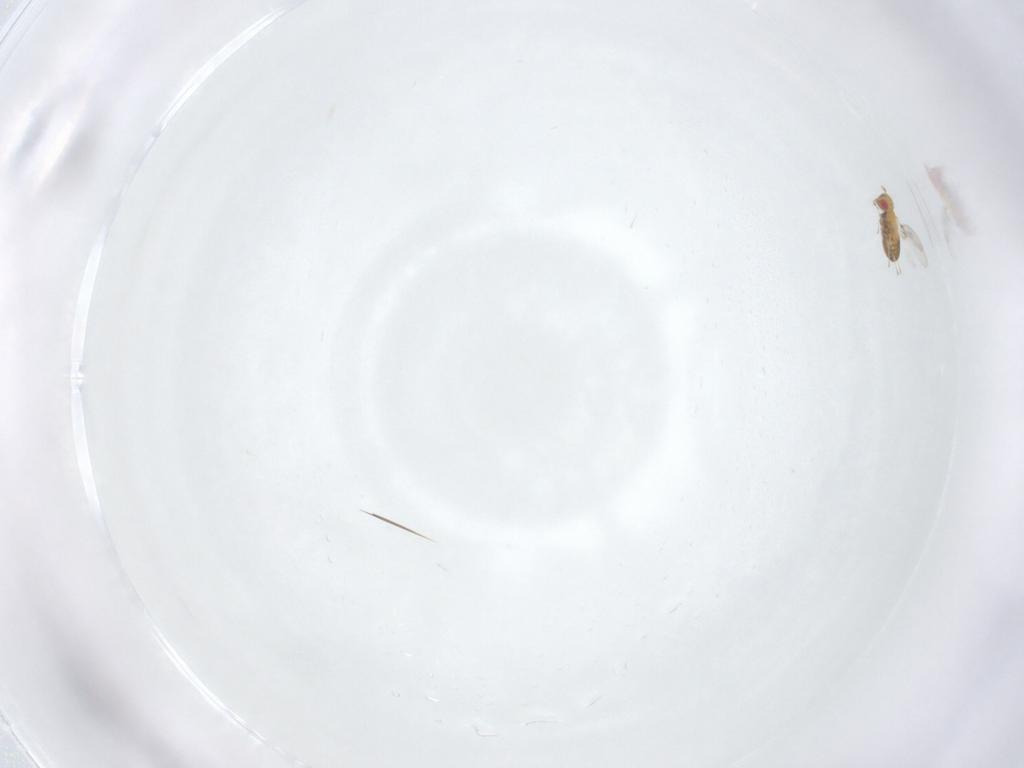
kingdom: Animalia
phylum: Arthropoda
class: Insecta
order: Hymenoptera
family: Trichogrammatidae
